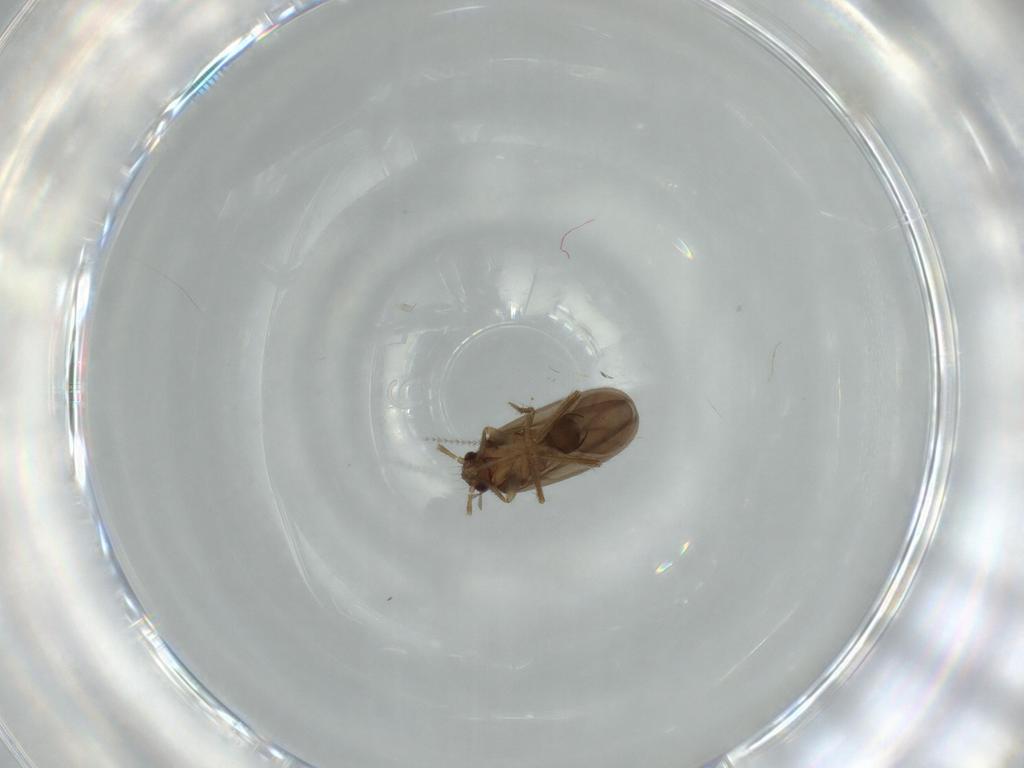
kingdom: Animalia
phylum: Arthropoda
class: Insecta
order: Hemiptera
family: Ceratocombidae
